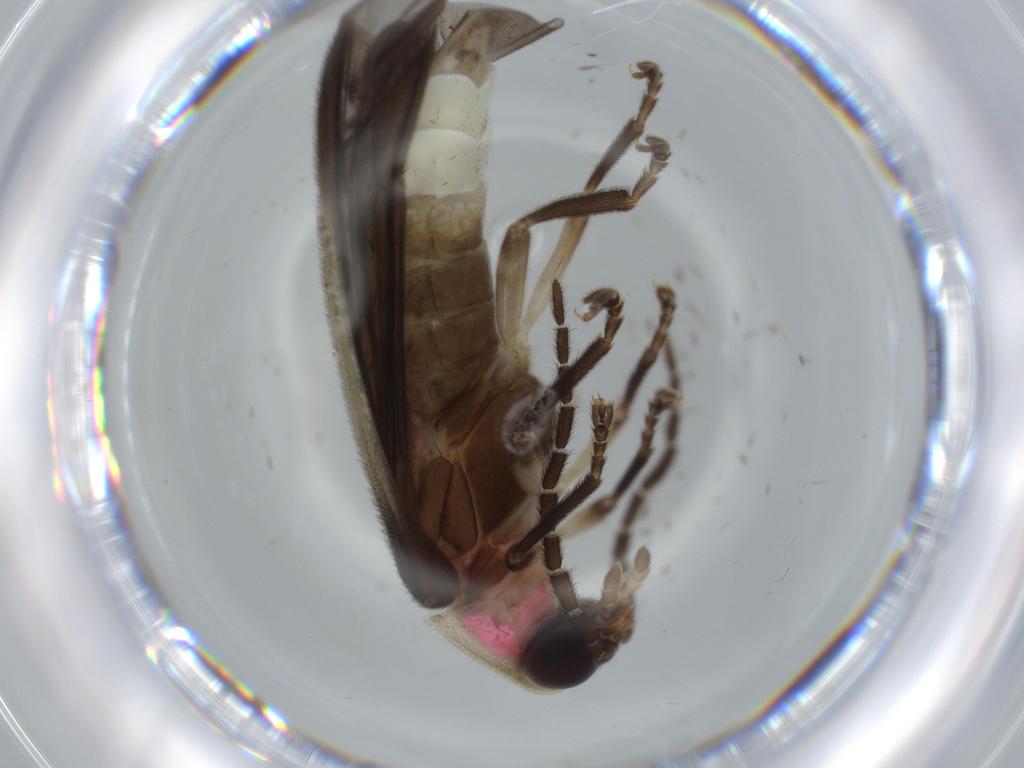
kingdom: Animalia
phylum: Arthropoda
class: Insecta
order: Coleoptera
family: Lampyridae
